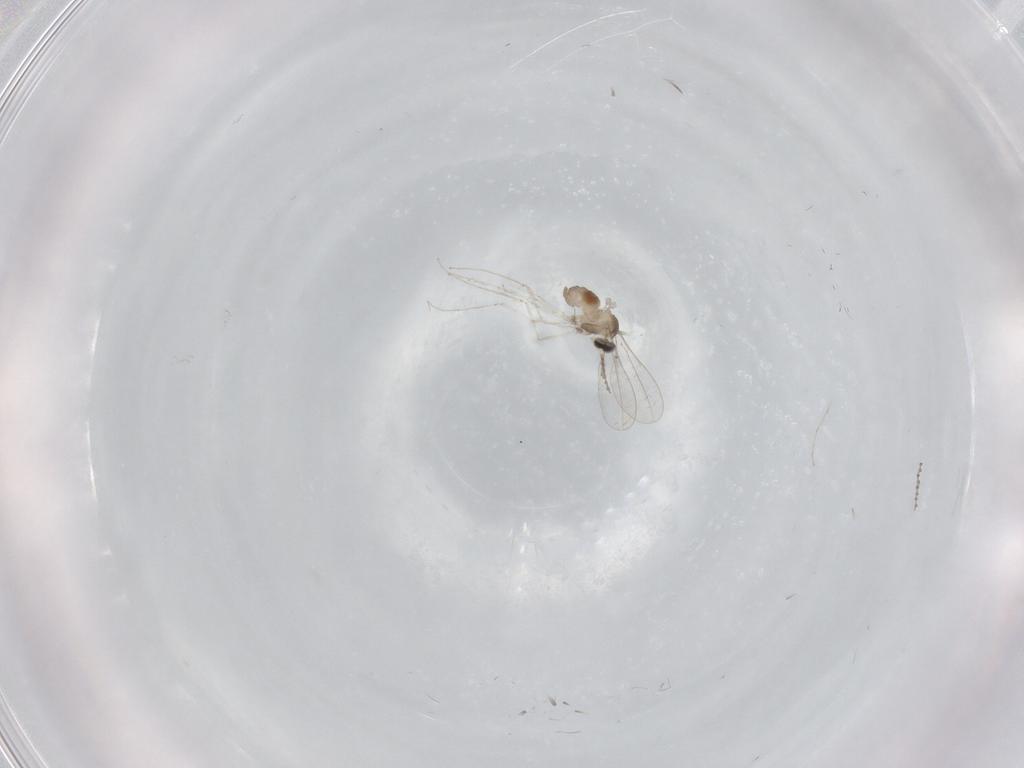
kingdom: Animalia
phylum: Arthropoda
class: Insecta
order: Diptera
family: Cecidomyiidae
